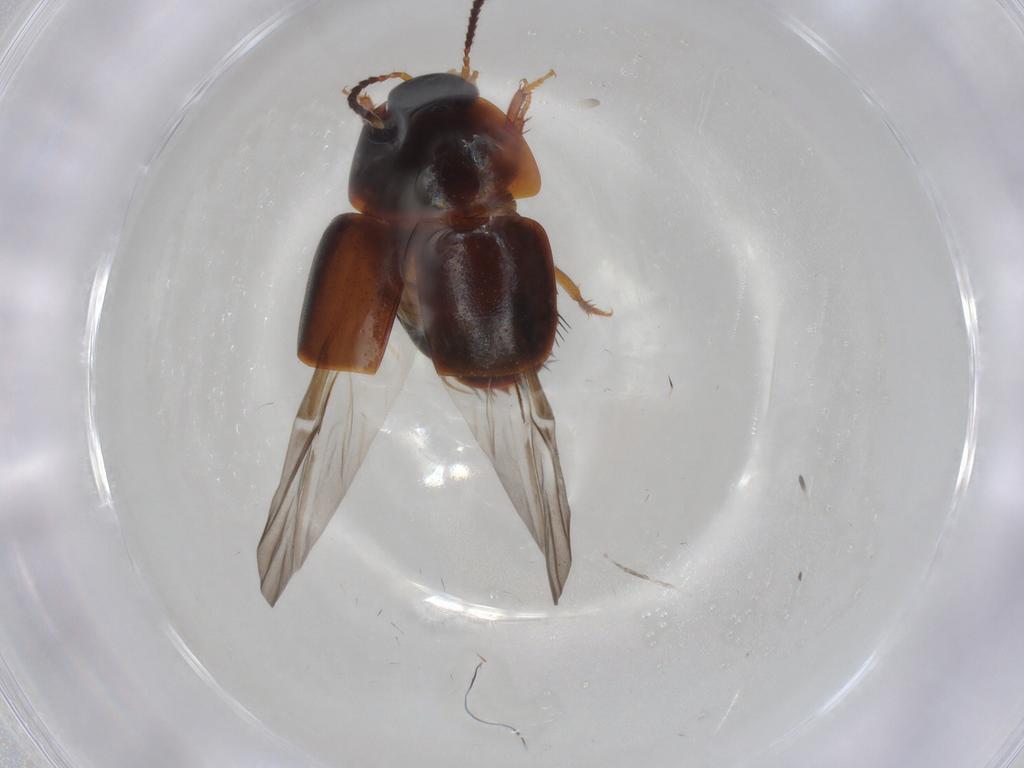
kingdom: Animalia
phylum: Arthropoda
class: Insecta
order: Coleoptera
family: Staphylinidae
